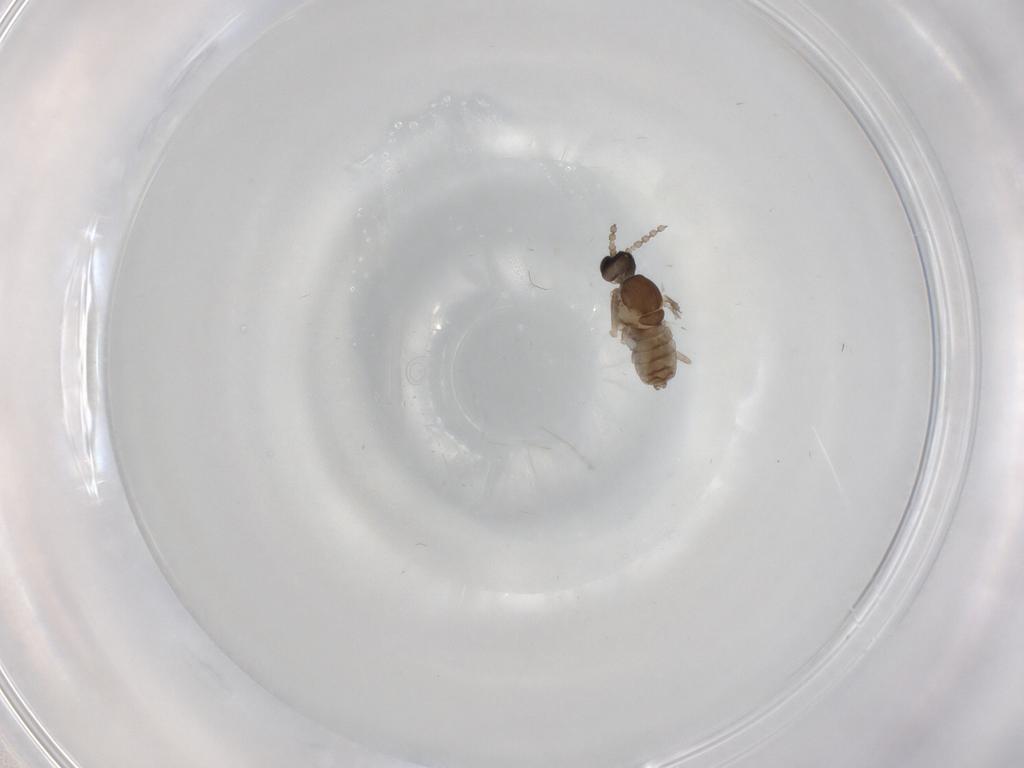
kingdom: Animalia
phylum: Arthropoda
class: Insecta
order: Diptera
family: Cecidomyiidae
